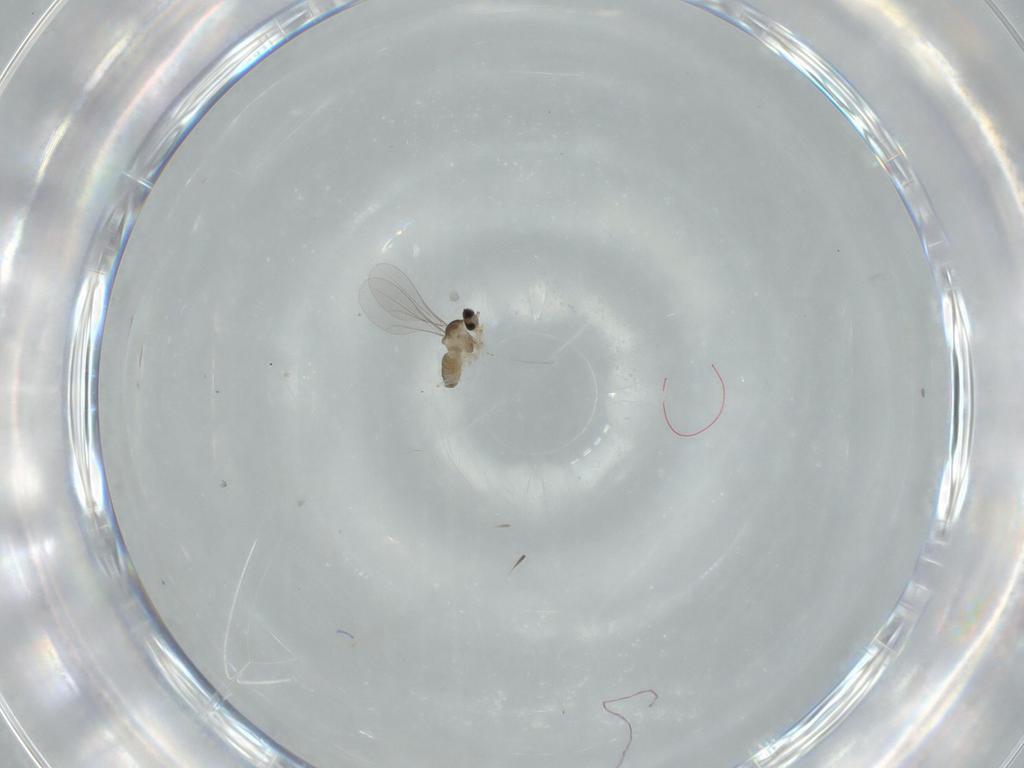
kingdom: Animalia
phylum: Arthropoda
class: Insecta
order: Diptera
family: Cecidomyiidae
